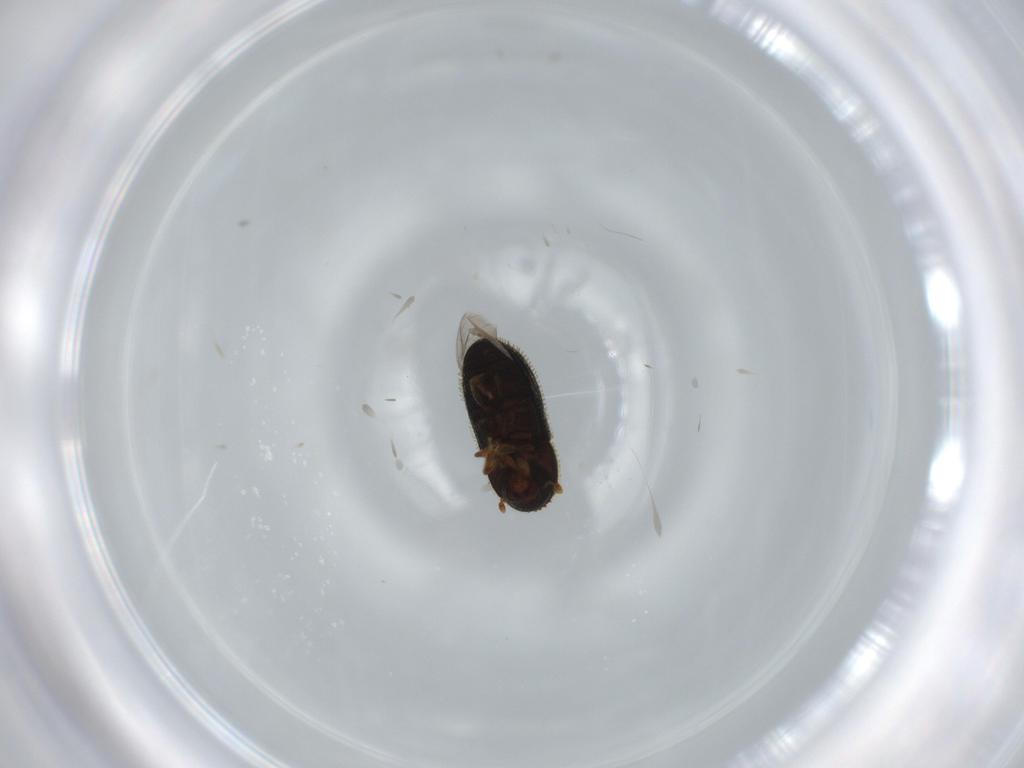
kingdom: Animalia
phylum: Arthropoda
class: Insecta
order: Coleoptera
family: Curculionidae
